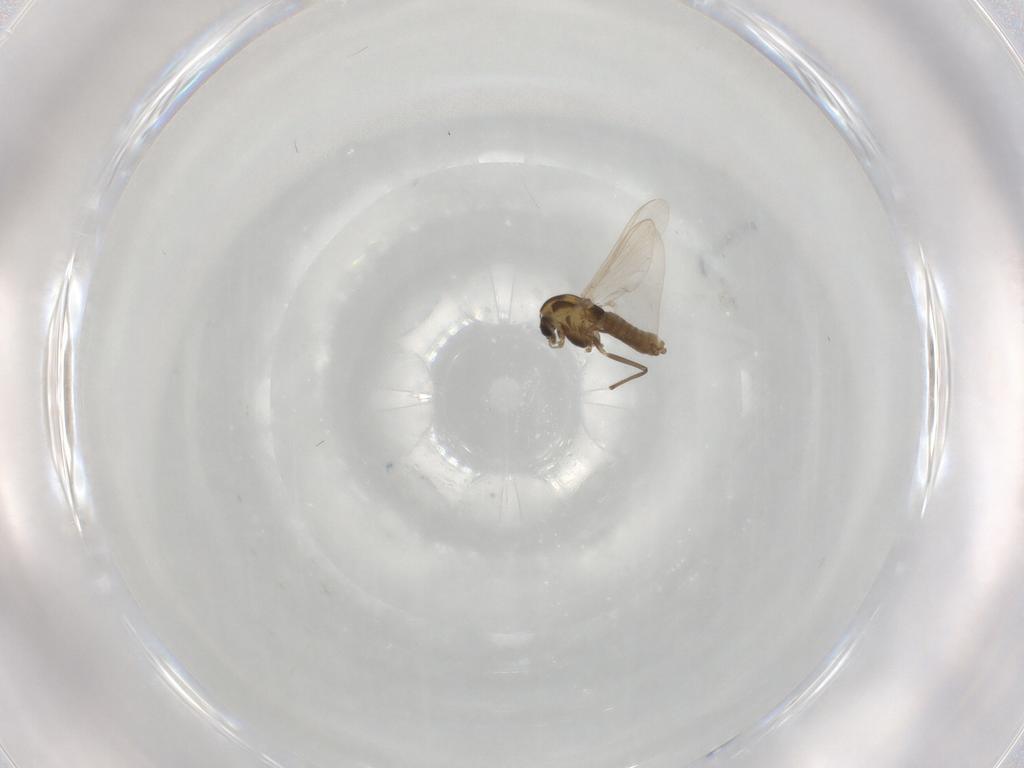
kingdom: Animalia
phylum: Arthropoda
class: Insecta
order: Diptera
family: Chironomidae
